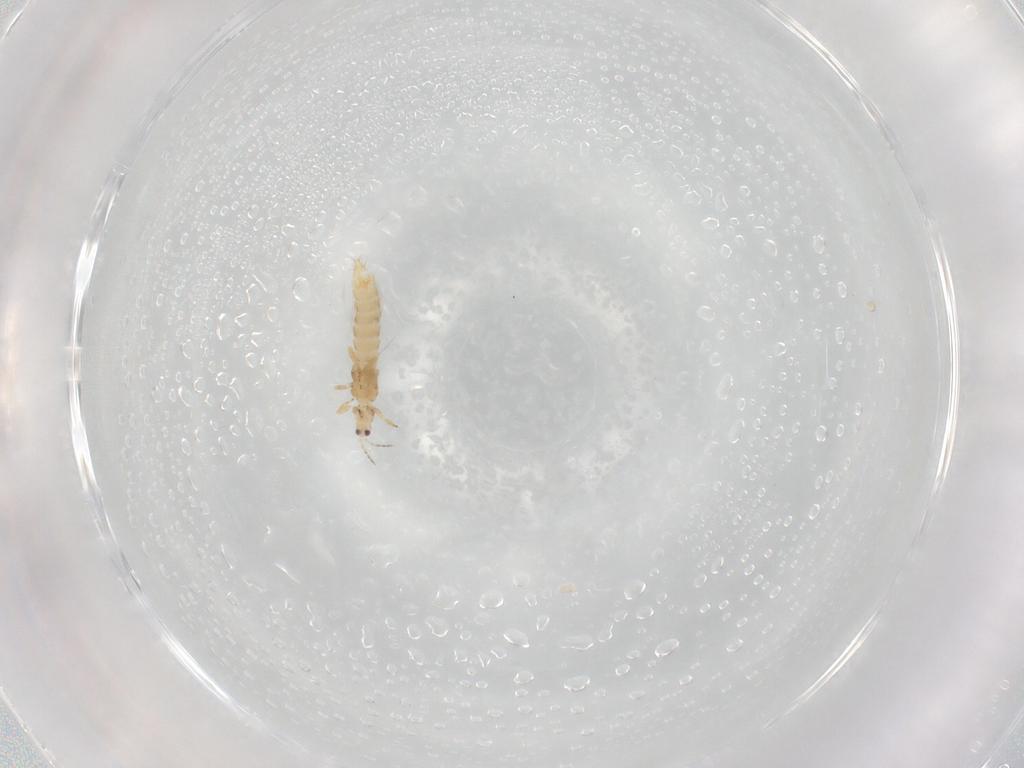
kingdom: Animalia
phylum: Arthropoda
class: Insecta
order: Thysanoptera
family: Thripidae
